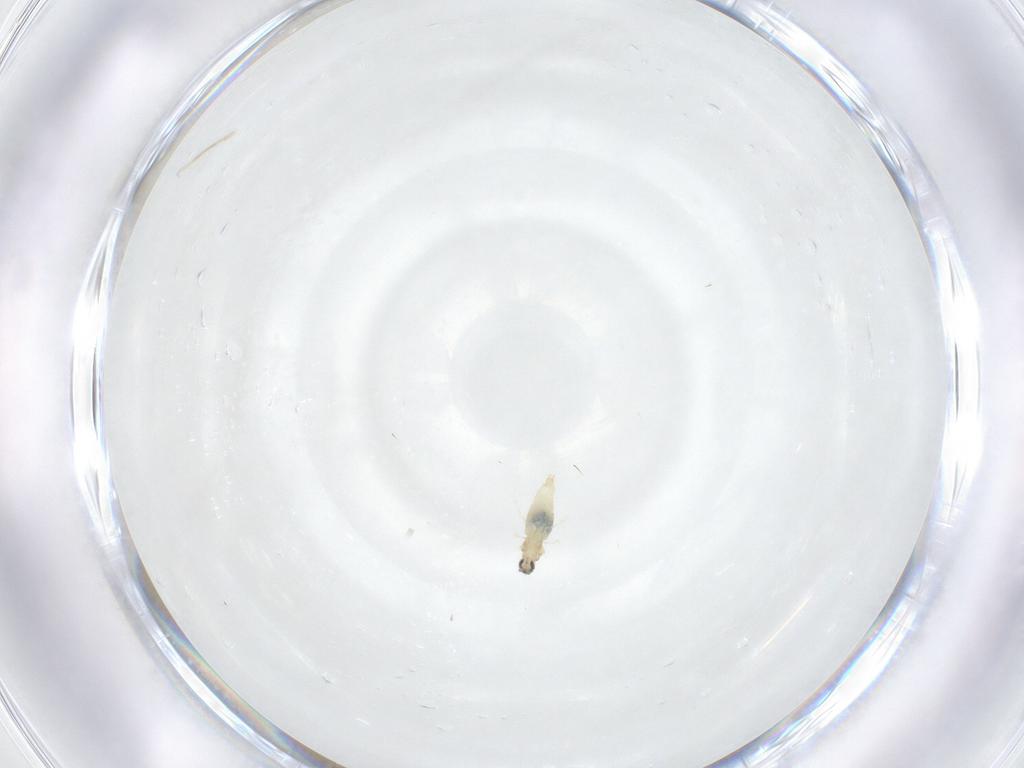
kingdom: Animalia
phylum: Arthropoda
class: Insecta
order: Diptera
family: Cecidomyiidae
